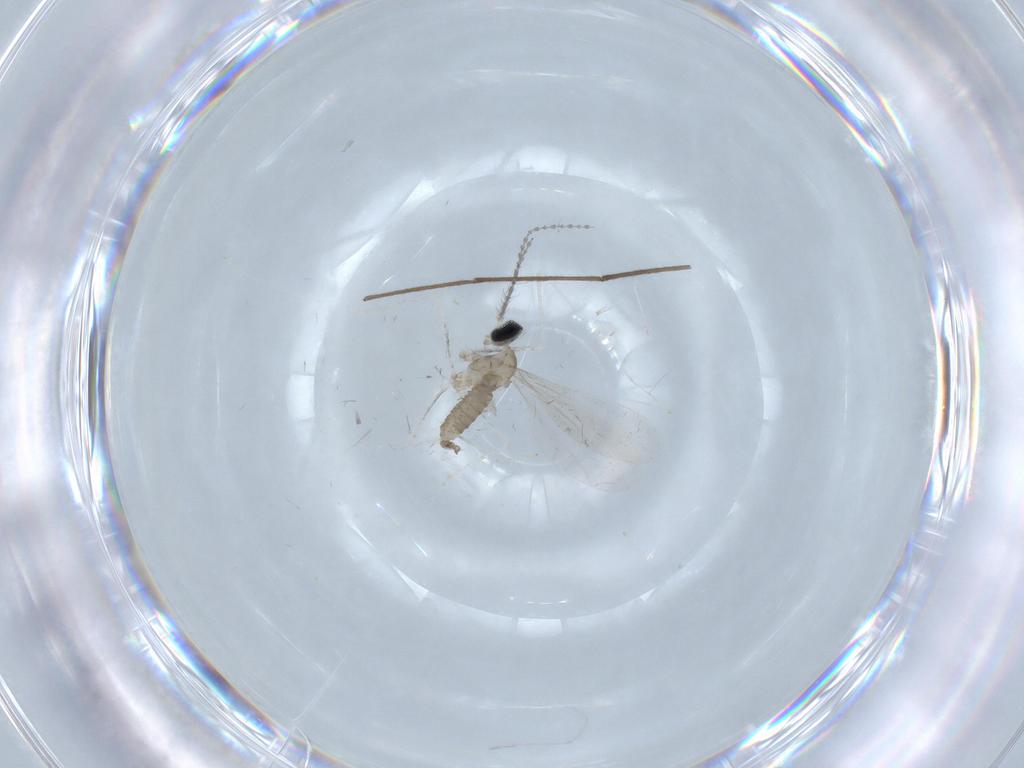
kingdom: Animalia
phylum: Arthropoda
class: Insecta
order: Diptera
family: Cecidomyiidae
